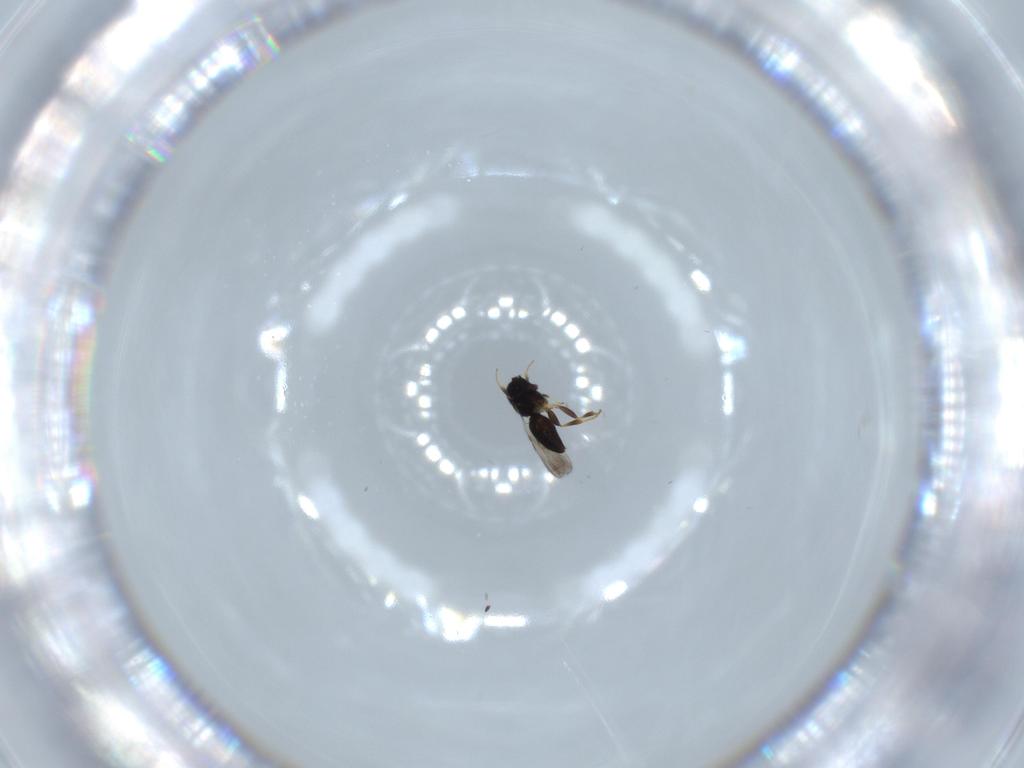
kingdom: Animalia
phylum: Arthropoda
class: Insecta
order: Hymenoptera
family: Scelionidae
